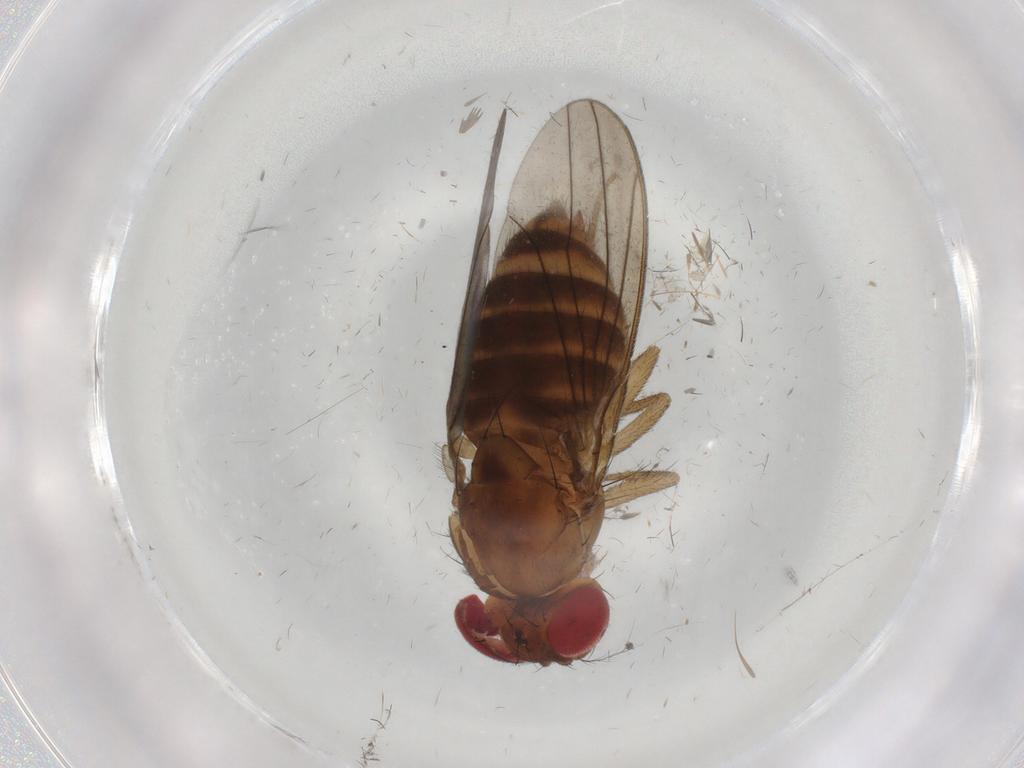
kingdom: Animalia
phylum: Arthropoda
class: Insecta
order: Diptera
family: Drosophilidae
